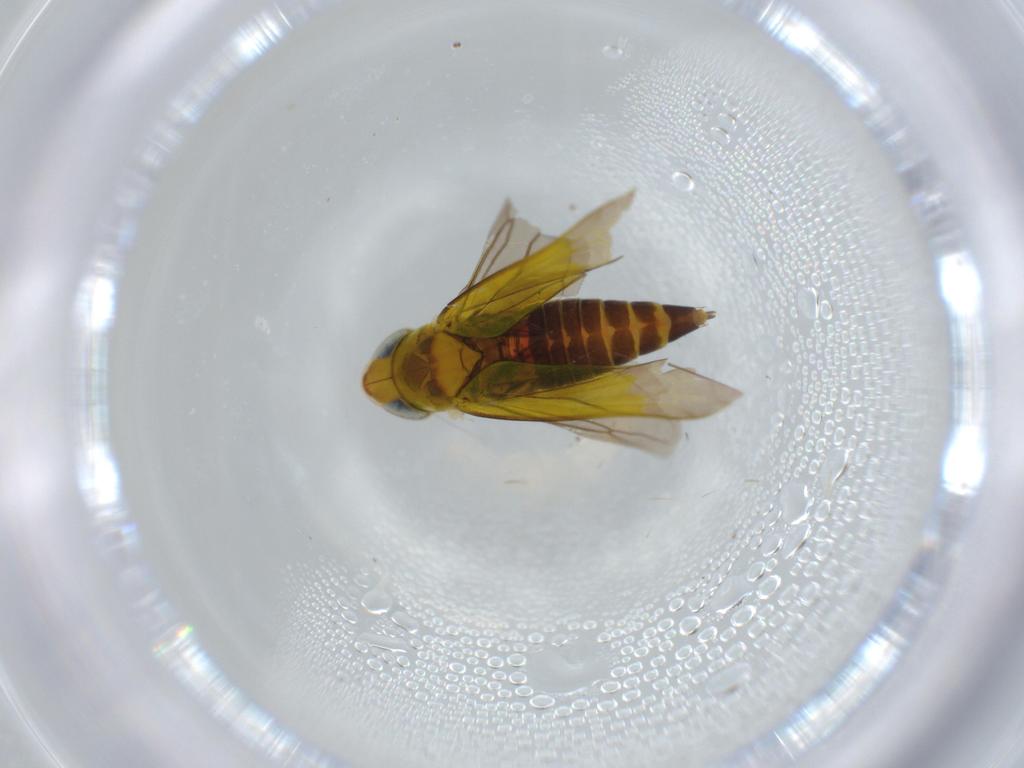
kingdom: Animalia
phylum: Arthropoda
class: Insecta
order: Hemiptera
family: Cicadellidae
